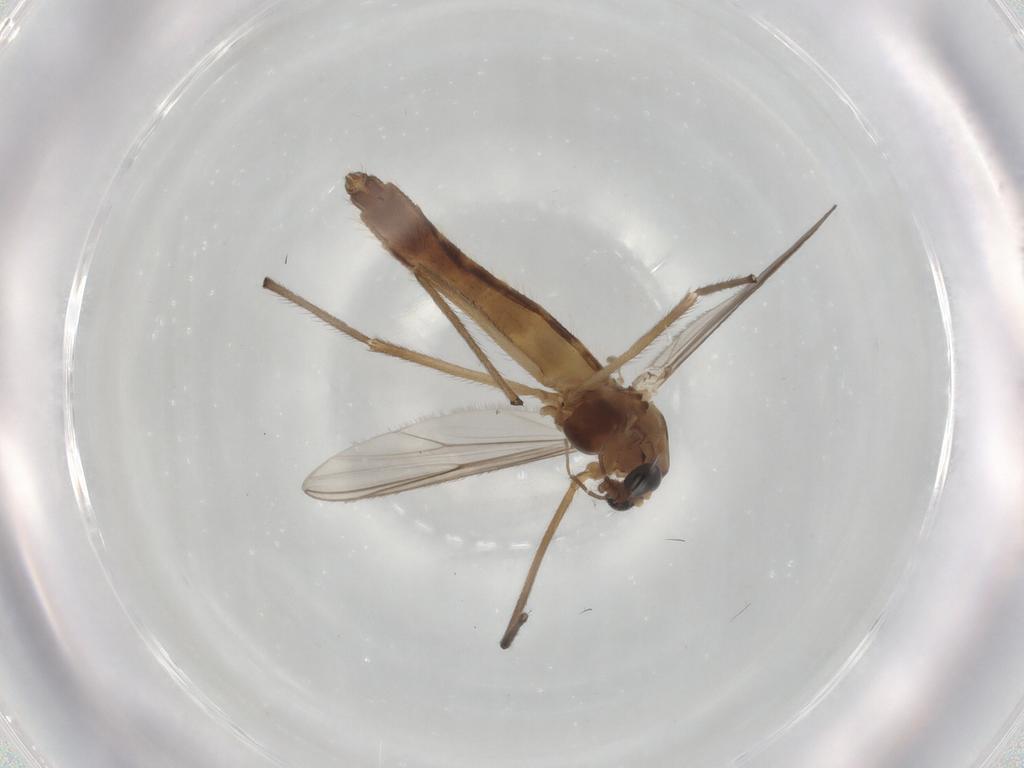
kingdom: Animalia
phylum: Arthropoda
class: Insecta
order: Diptera
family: Chironomidae
